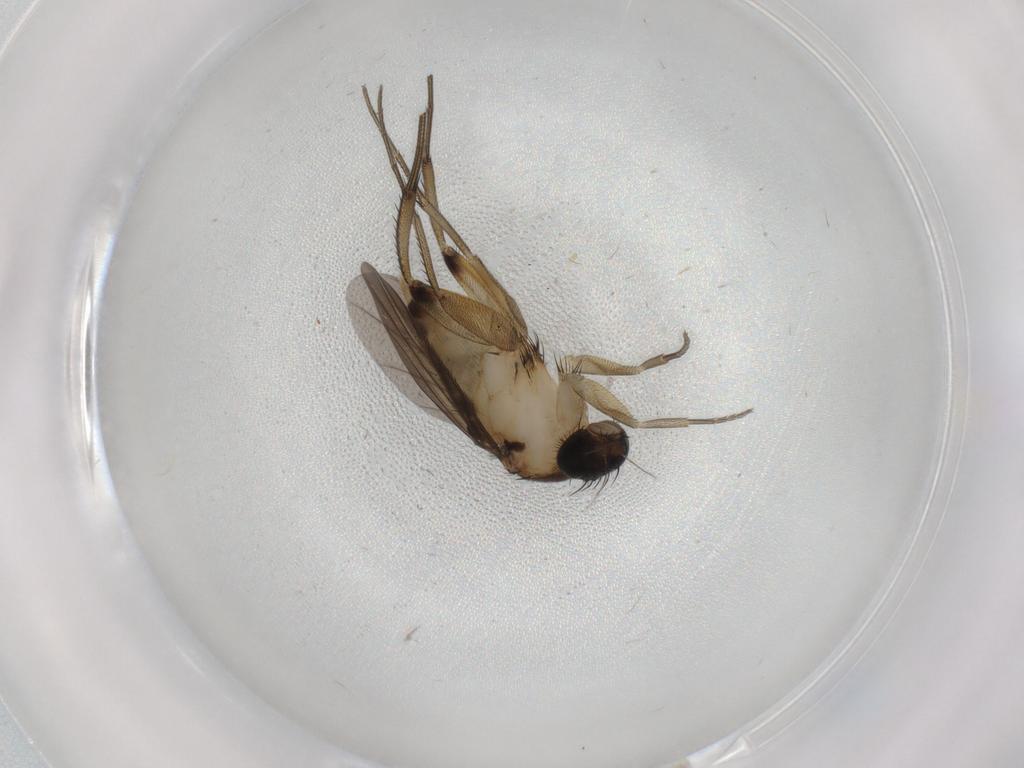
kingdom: Animalia
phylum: Arthropoda
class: Insecta
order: Diptera
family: Phoridae
